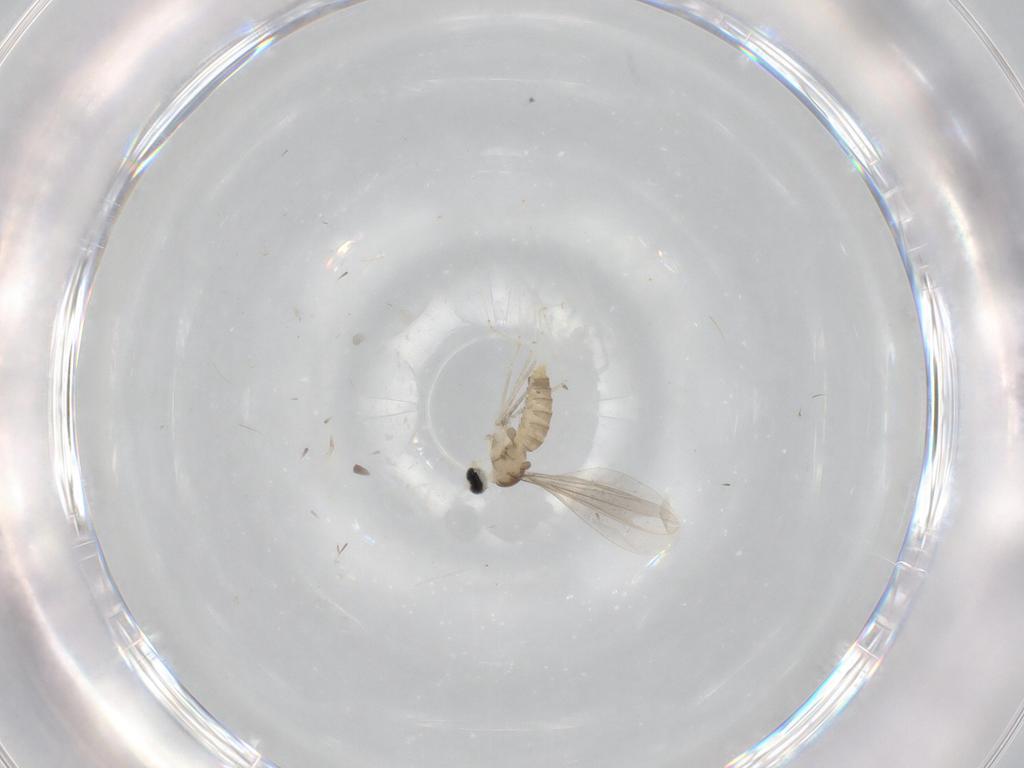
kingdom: Animalia
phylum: Arthropoda
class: Insecta
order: Diptera
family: Ceratopogonidae
